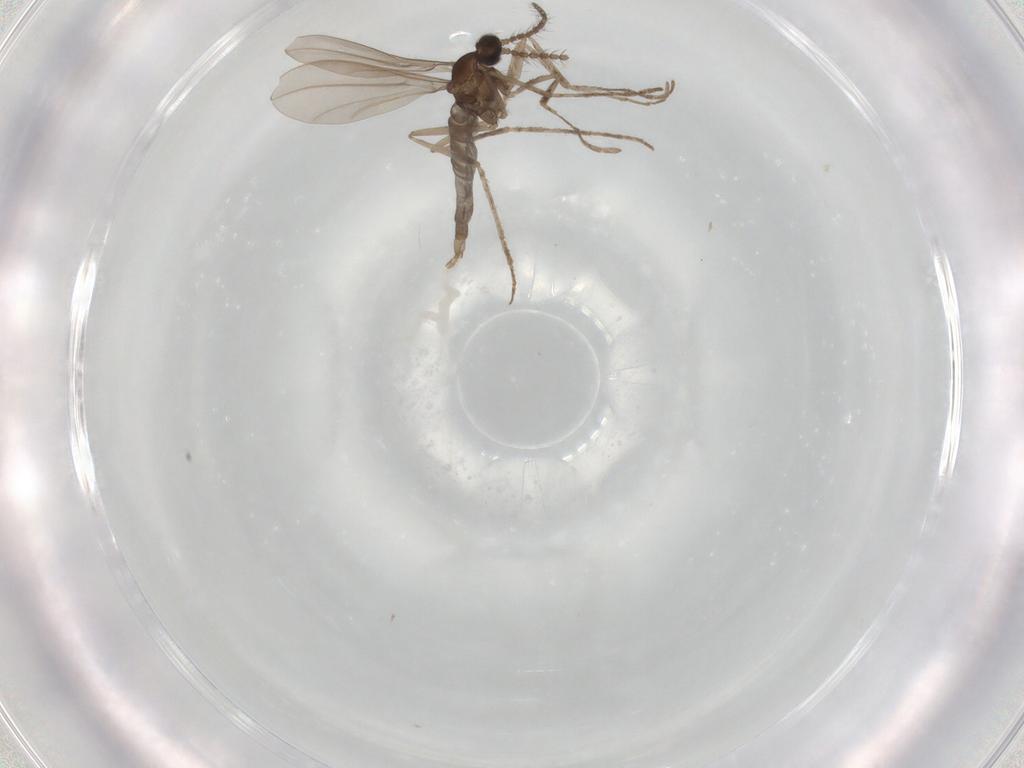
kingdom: Animalia
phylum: Arthropoda
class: Insecta
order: Diptera
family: Cecidomyiidae
